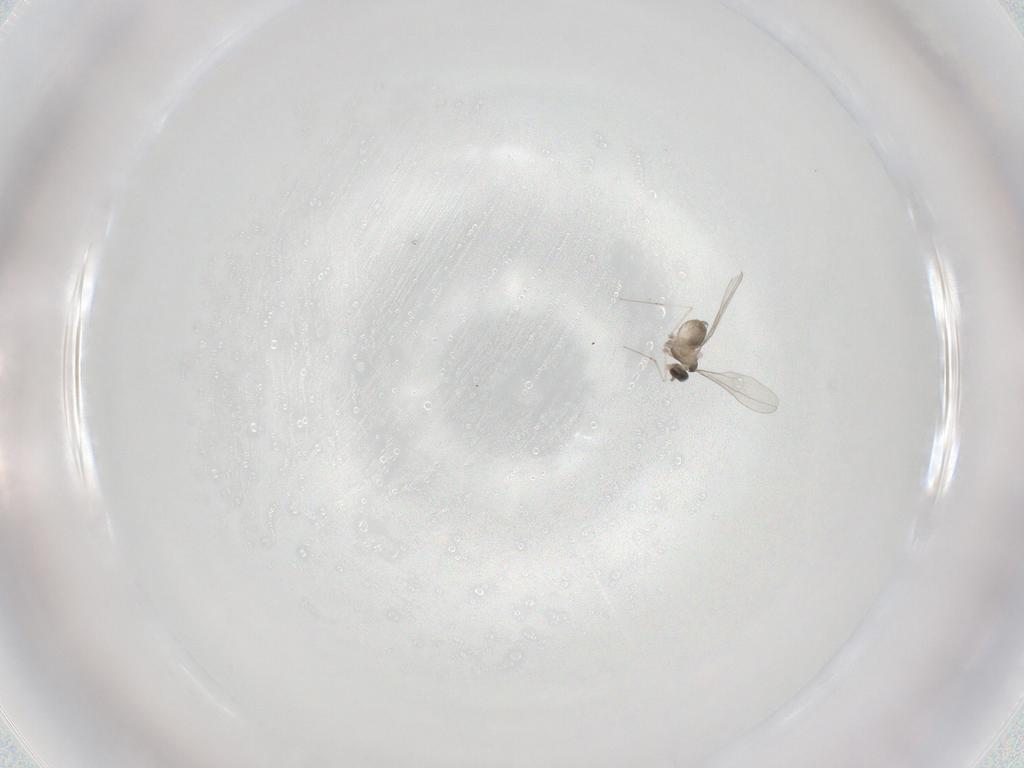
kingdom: Animalia
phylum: Arthropoda
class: Insecta
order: Diptera
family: Cecidomyiidae
